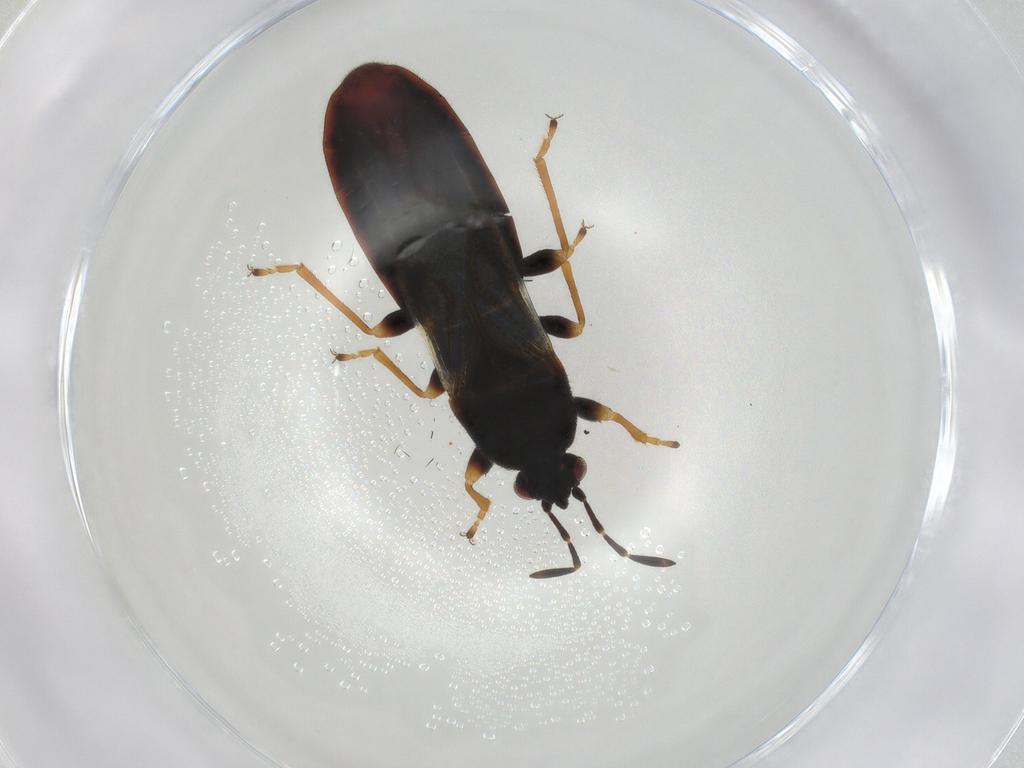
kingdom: Animalia
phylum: Arthropoda
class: Insecta
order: Hemiptera
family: Blissidae
